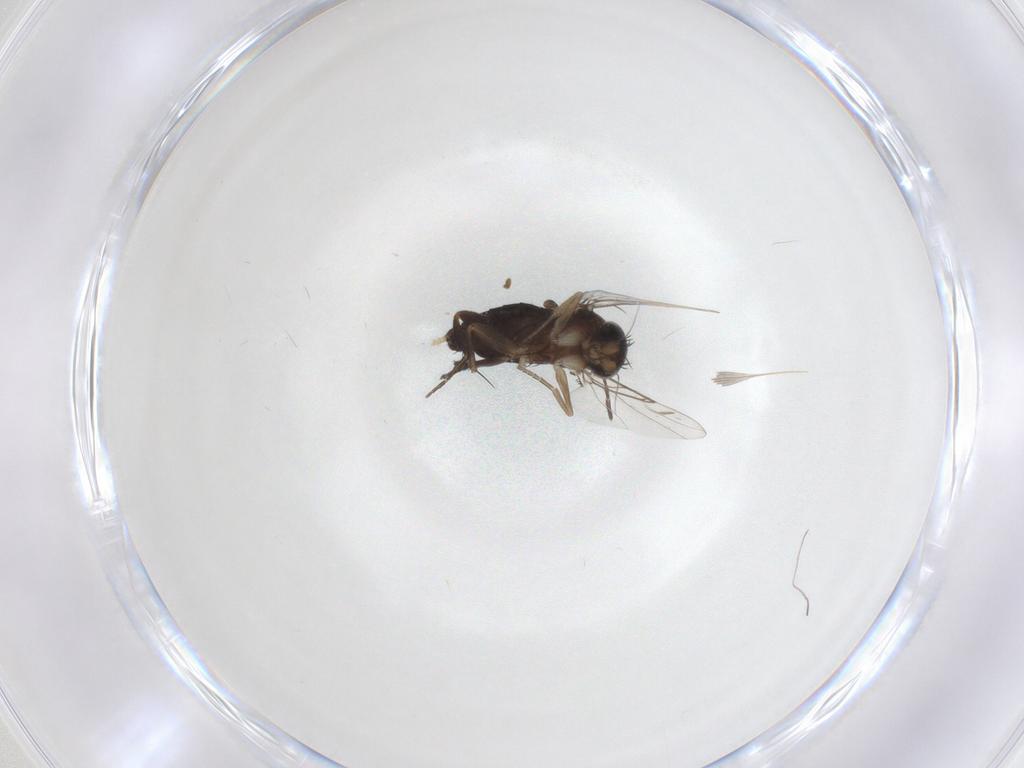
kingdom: Animalia
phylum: Arthropoda
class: Insecta
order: Diptera
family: Phoridae
